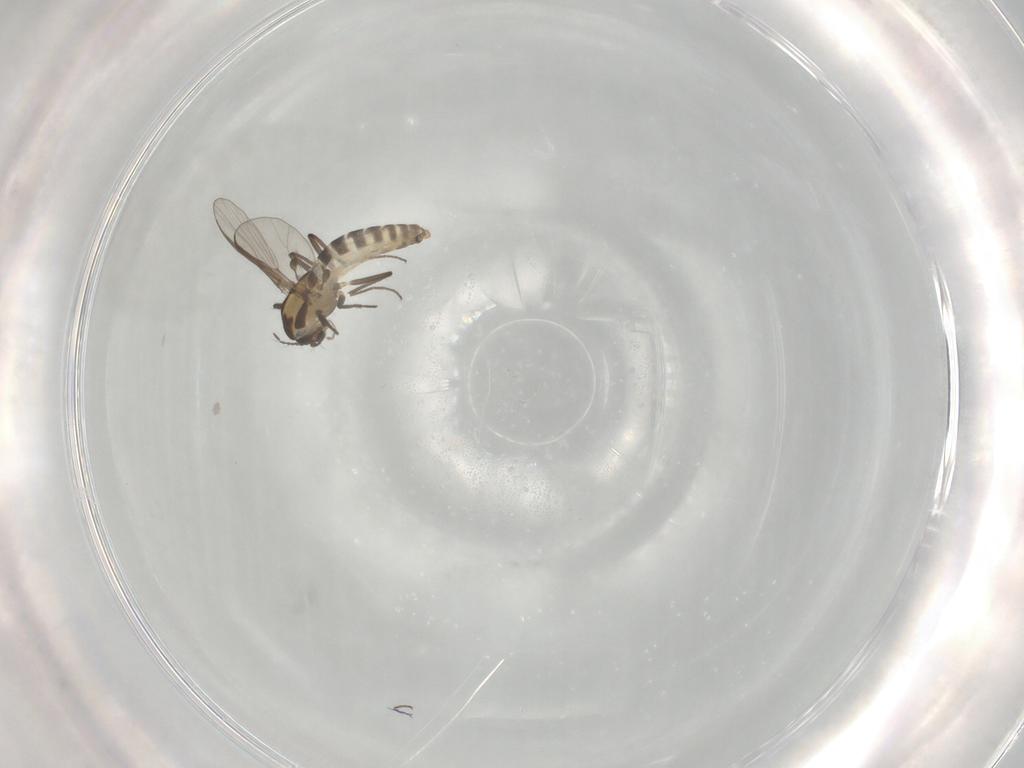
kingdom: Animalia
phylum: Arthropoda
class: Insecta
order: Diptera
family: Chironomidae
